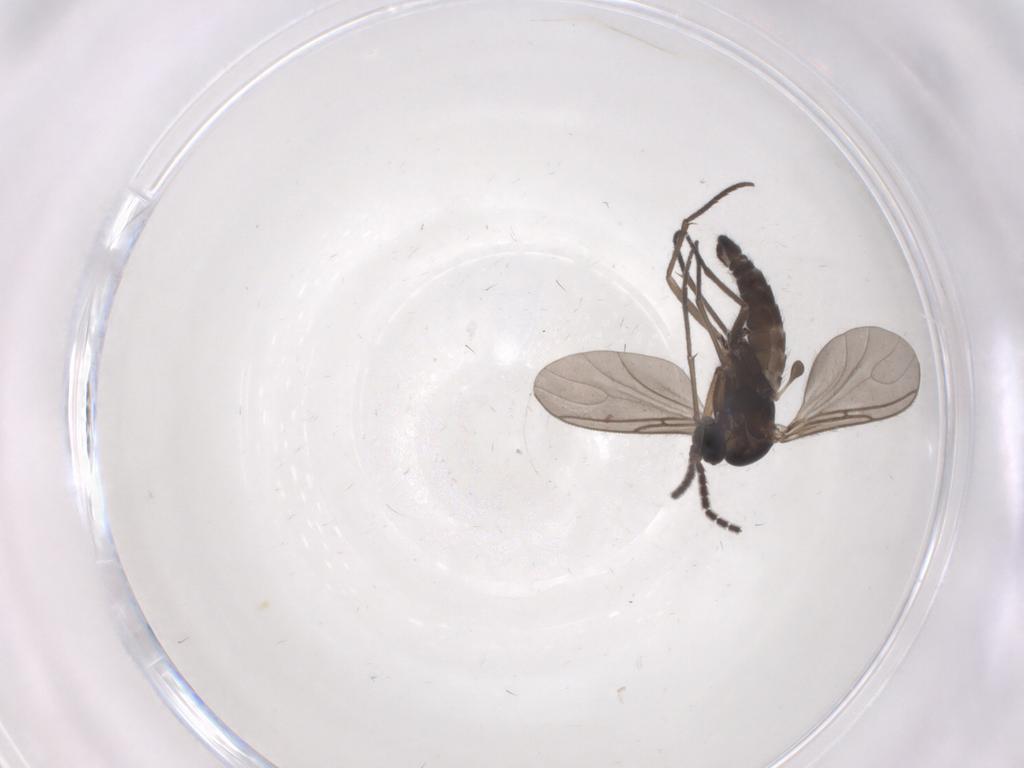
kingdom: Animalia
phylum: Arthropoda
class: Insecta
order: Diptera
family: Sciaridae
